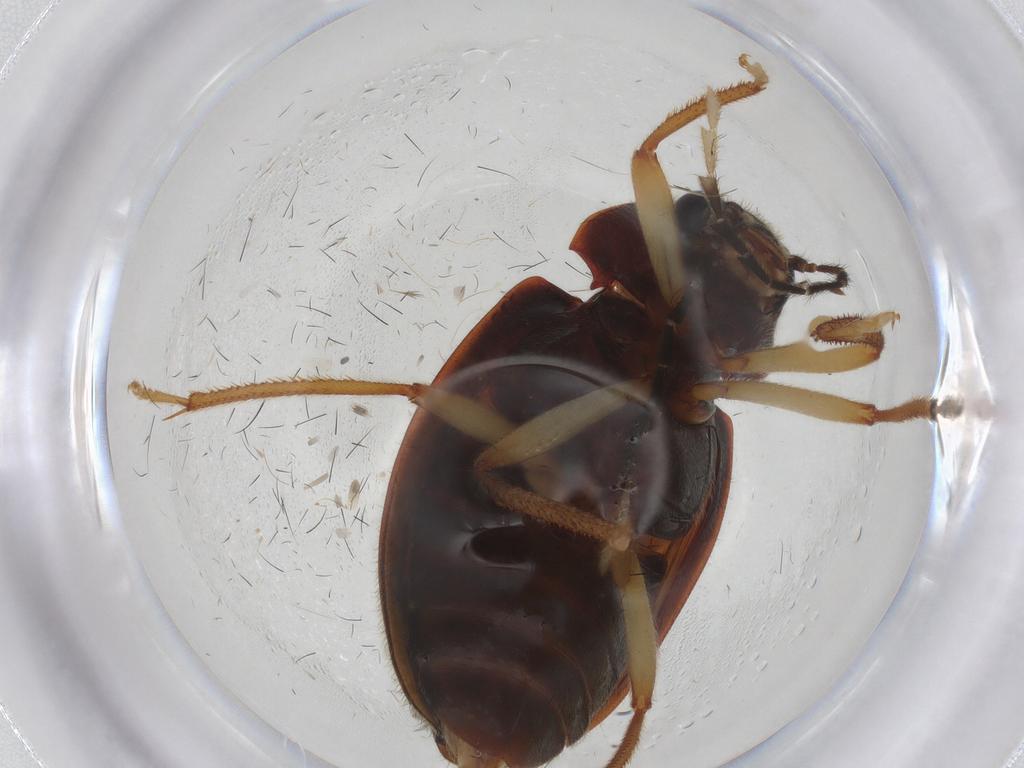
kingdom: Animalia
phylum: Arthropoda
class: Insecta
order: Coleoptera
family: Ptilodactylidae
